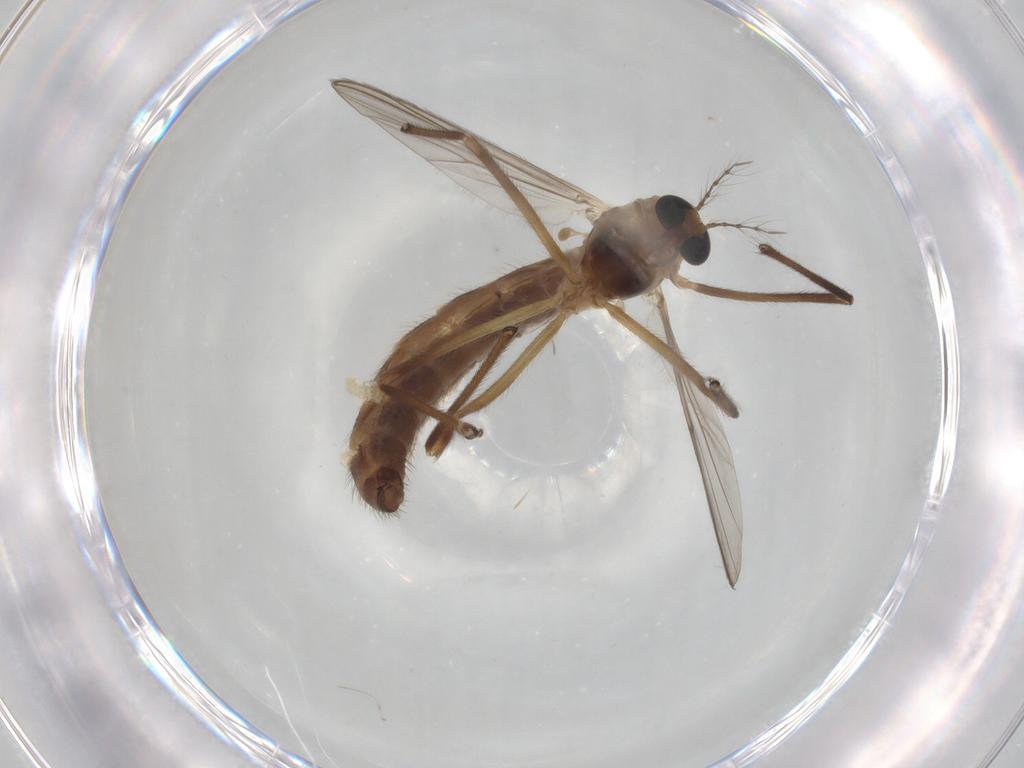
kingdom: Animalia
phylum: Arthropoda
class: Insecta
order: Diptera
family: Chironomidae
